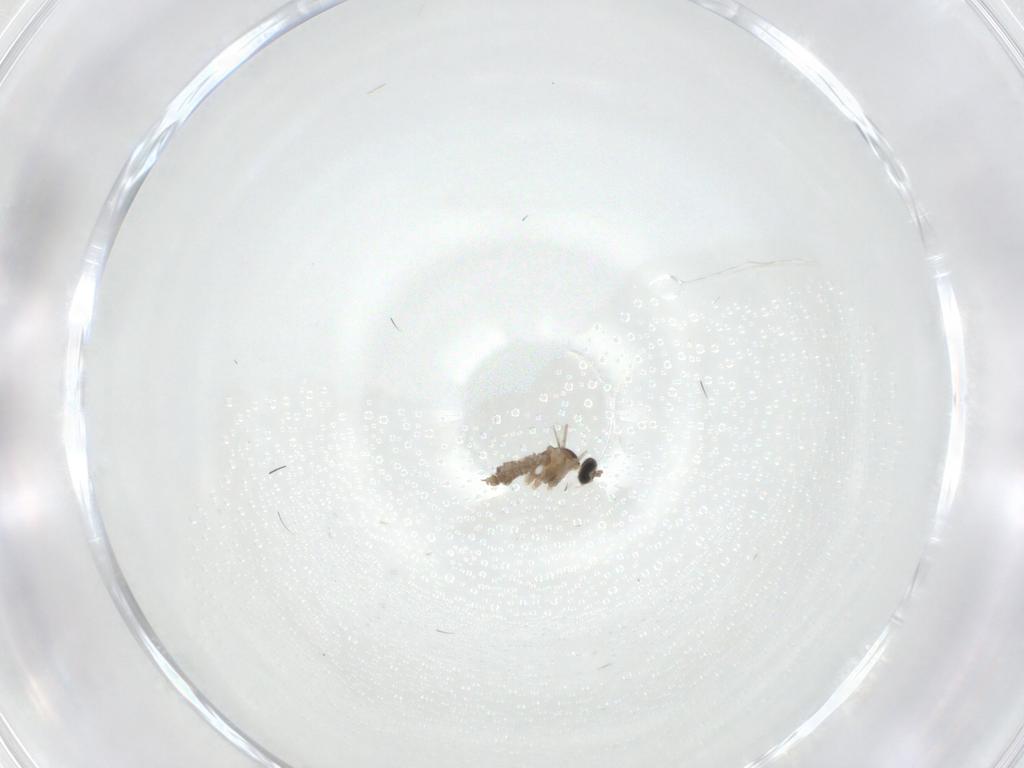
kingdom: Animalia
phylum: Arthropoda
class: Insecta
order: Diptera
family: Cecidomyiidae
